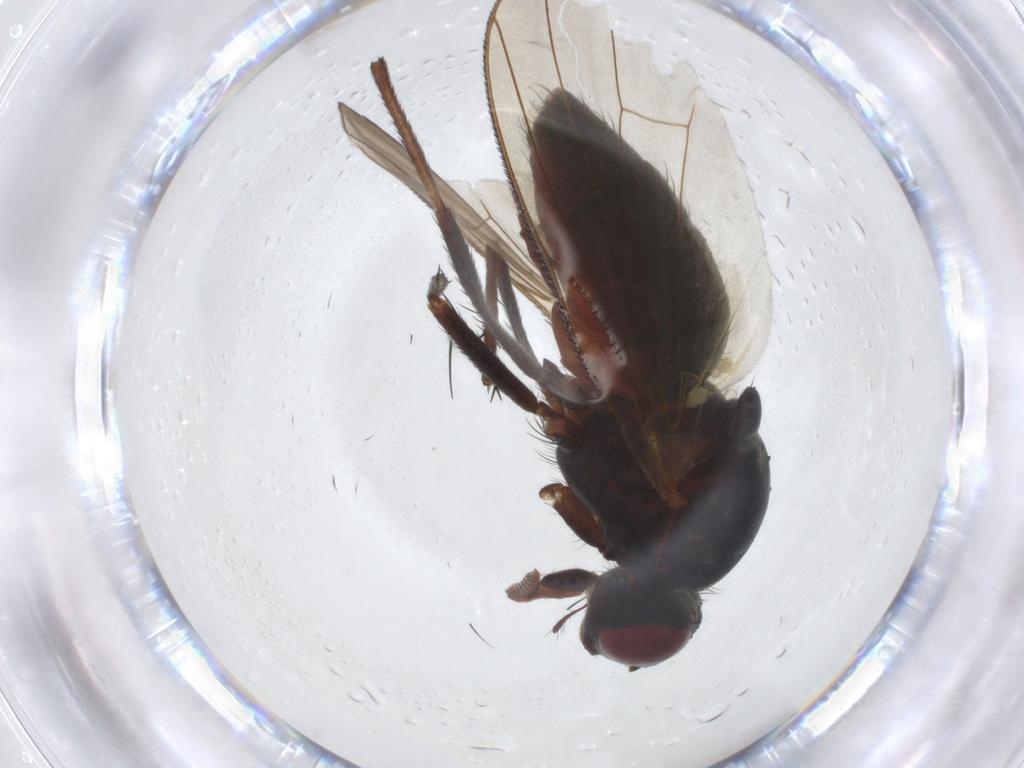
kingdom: Animalia
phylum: Arthropoda
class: Insecta
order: Diptera
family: Anthomyiidae
